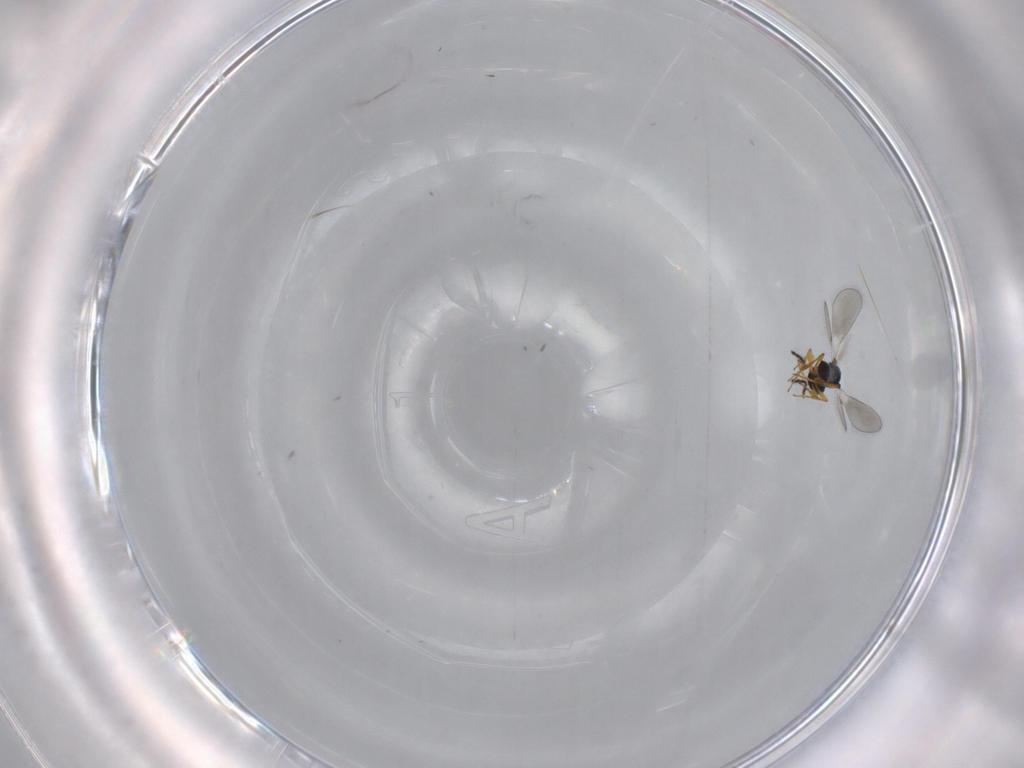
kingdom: Animalia
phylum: Arthropoda
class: Insecta
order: Hymenoptera
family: Platygastridae
